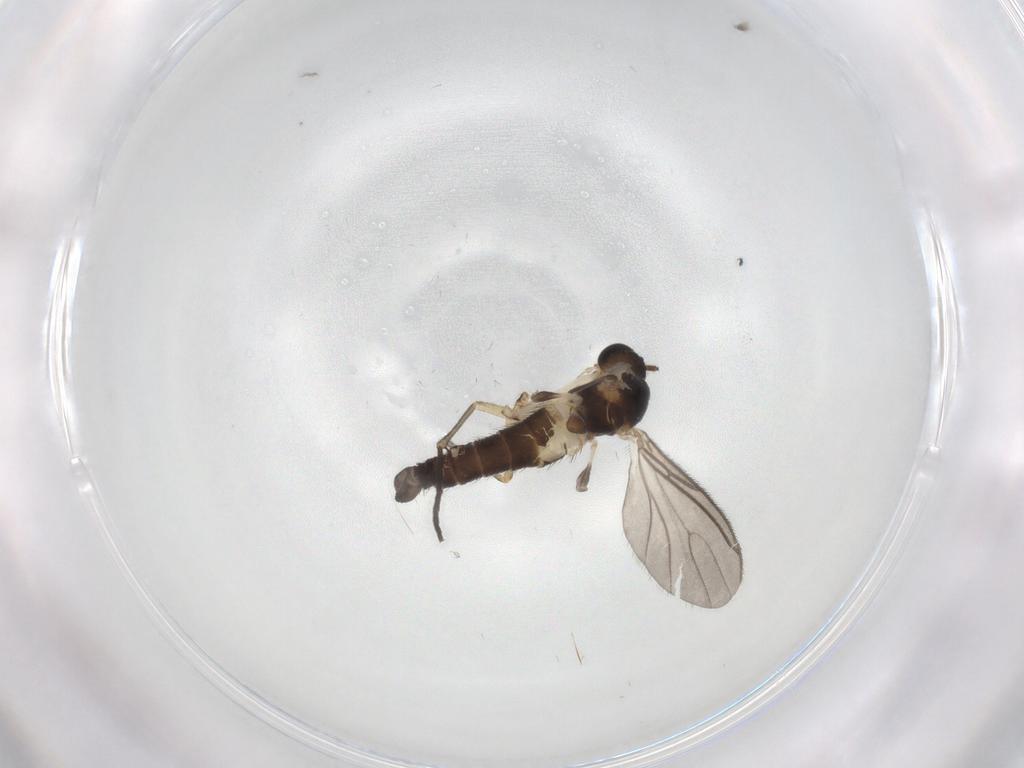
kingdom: Animalia
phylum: Arthropoda
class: Insecta
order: Diptera
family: Sciaridae
